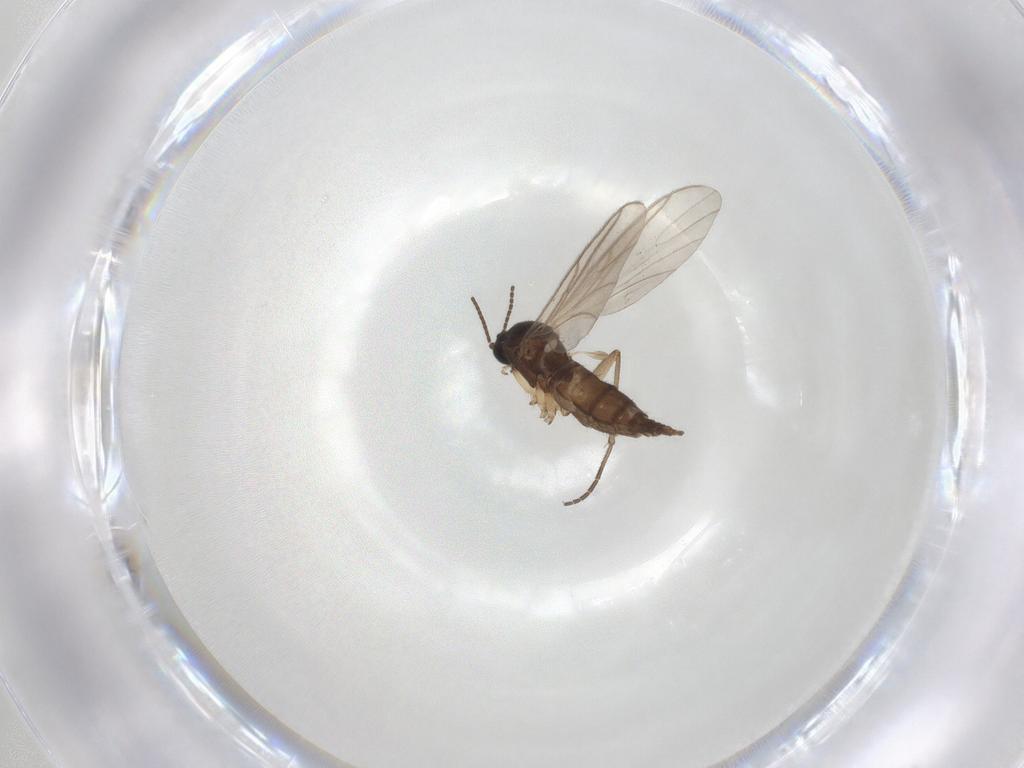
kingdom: Animalia
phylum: Arthropoda
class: Insecta
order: Diptera
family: Sciaridae
